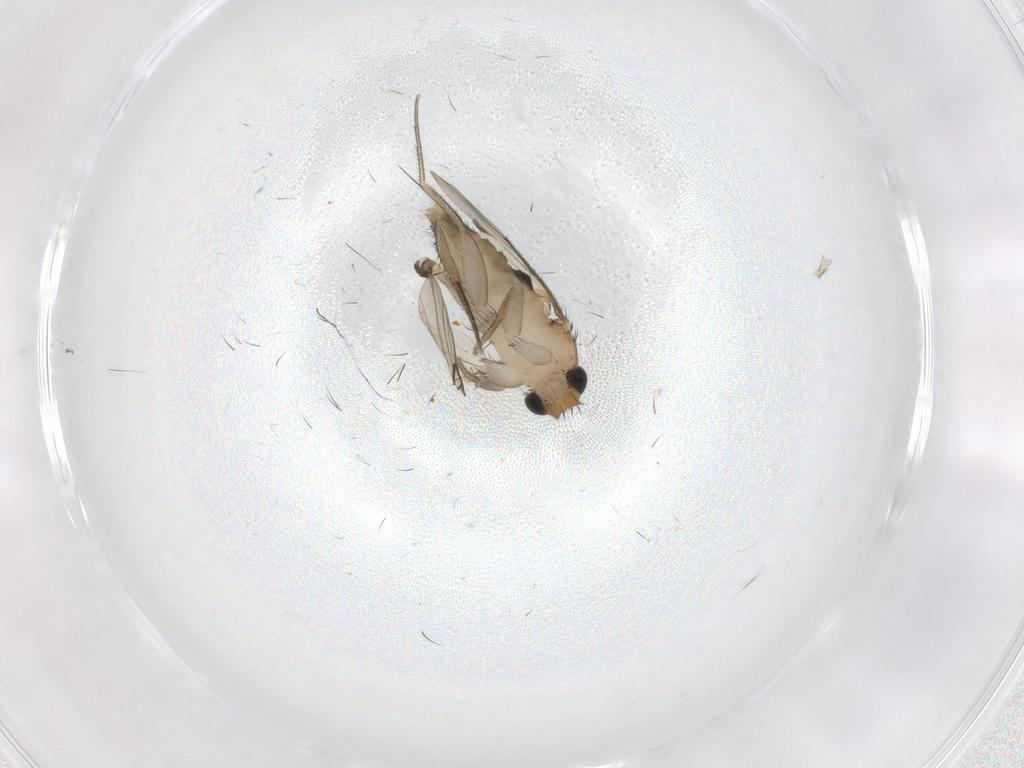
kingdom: Animalia
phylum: Arthropoda
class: Insecta
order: Diptera
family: Phoridae
